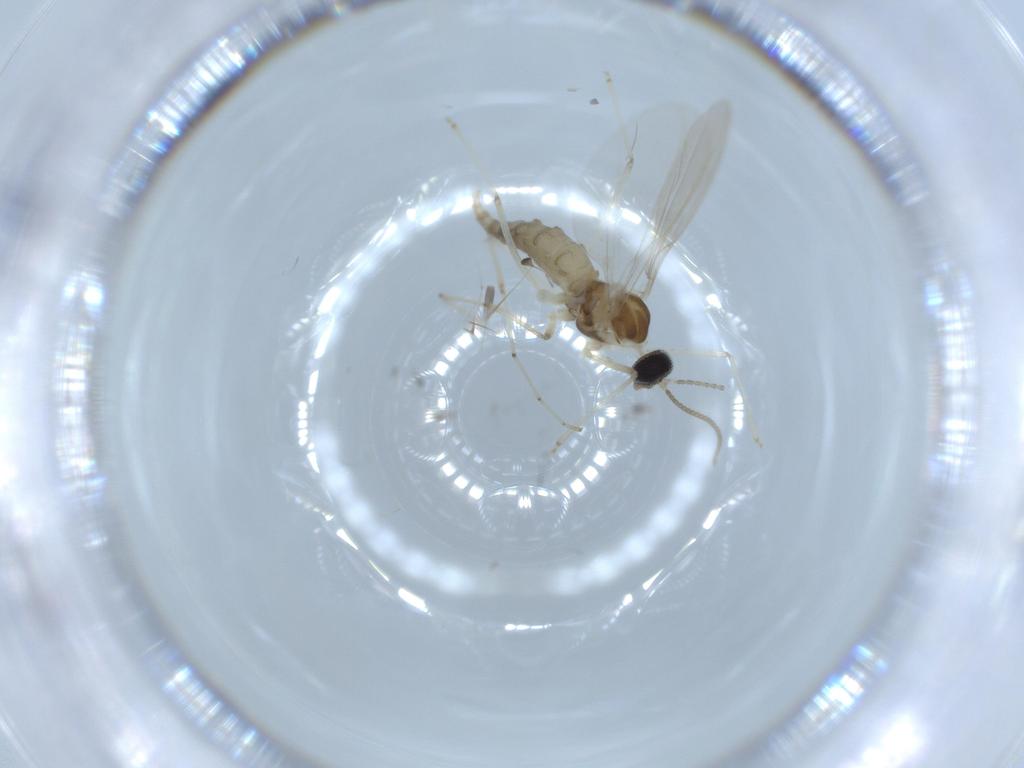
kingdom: Animalia
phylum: Arthropoda
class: Insecta
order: Diptera
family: Cecidomyiidae
